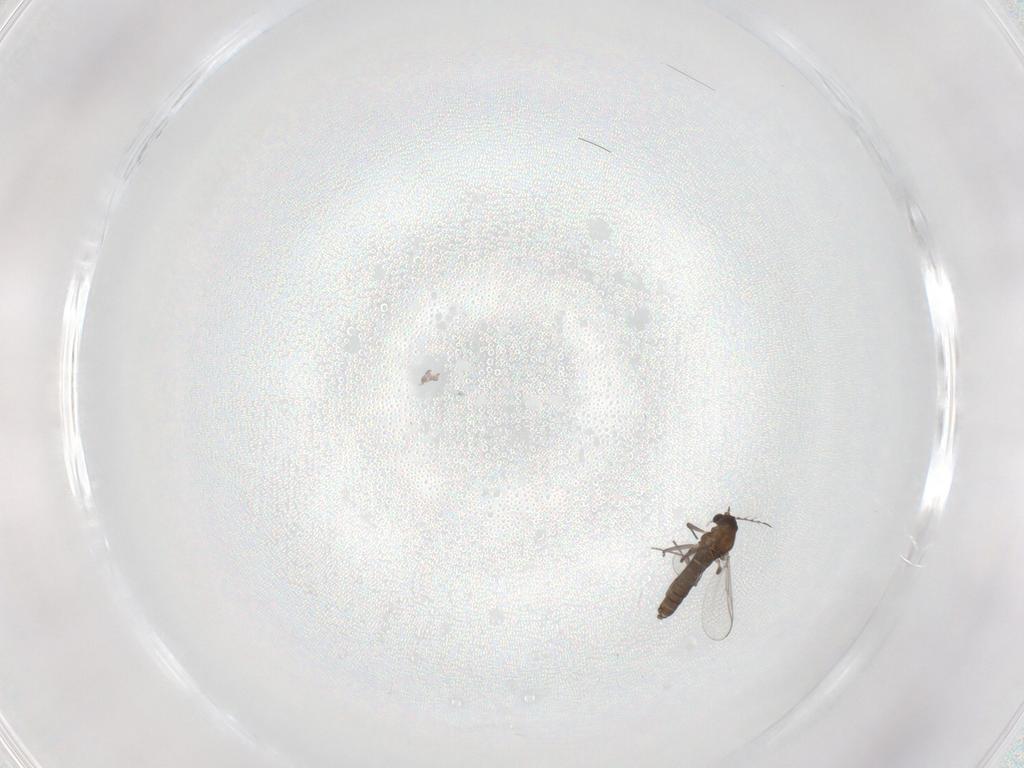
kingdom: Animalia
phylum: Arthropoda
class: Insecta
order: Diptera
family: Chironomidae
